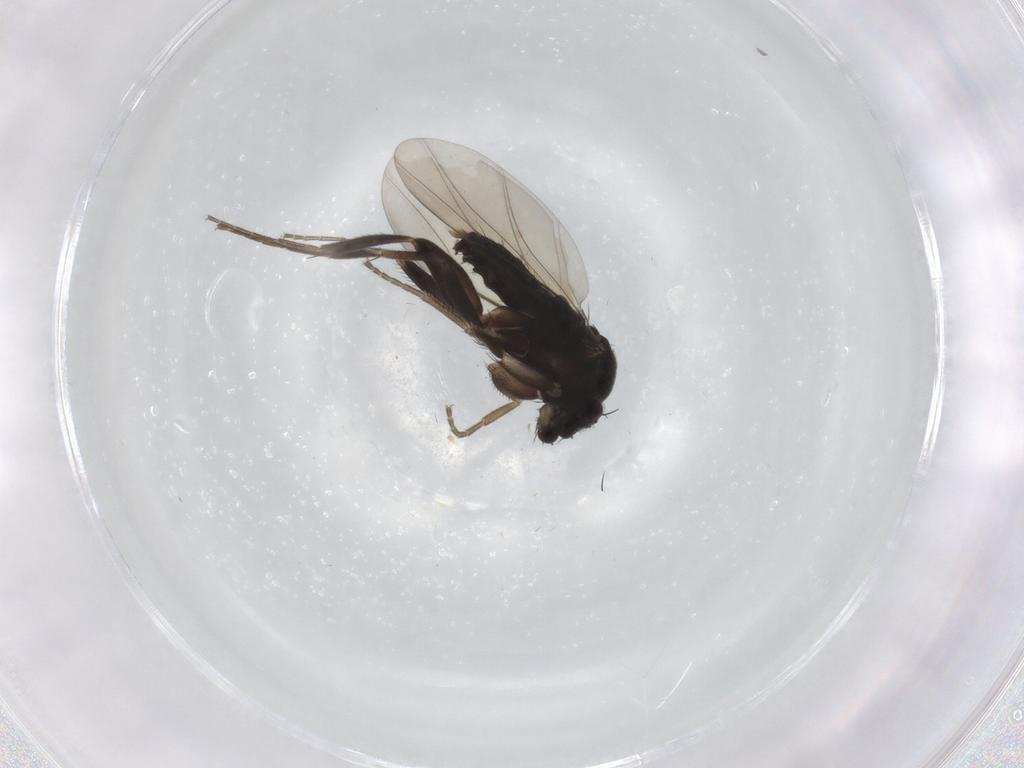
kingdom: Animalia
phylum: Arthropoda
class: Insecta
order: Diptera
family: Phoridae
